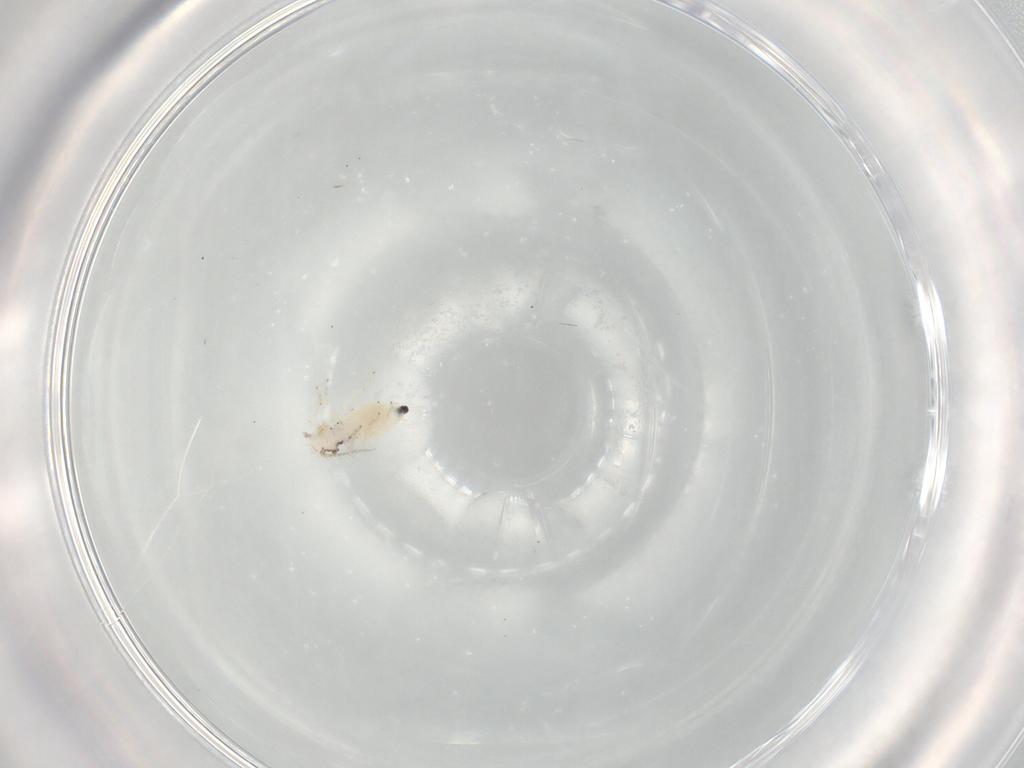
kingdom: Animalia
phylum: Arthropoda
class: Insecta
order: Psocodea
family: Pseudocaeciliidae
